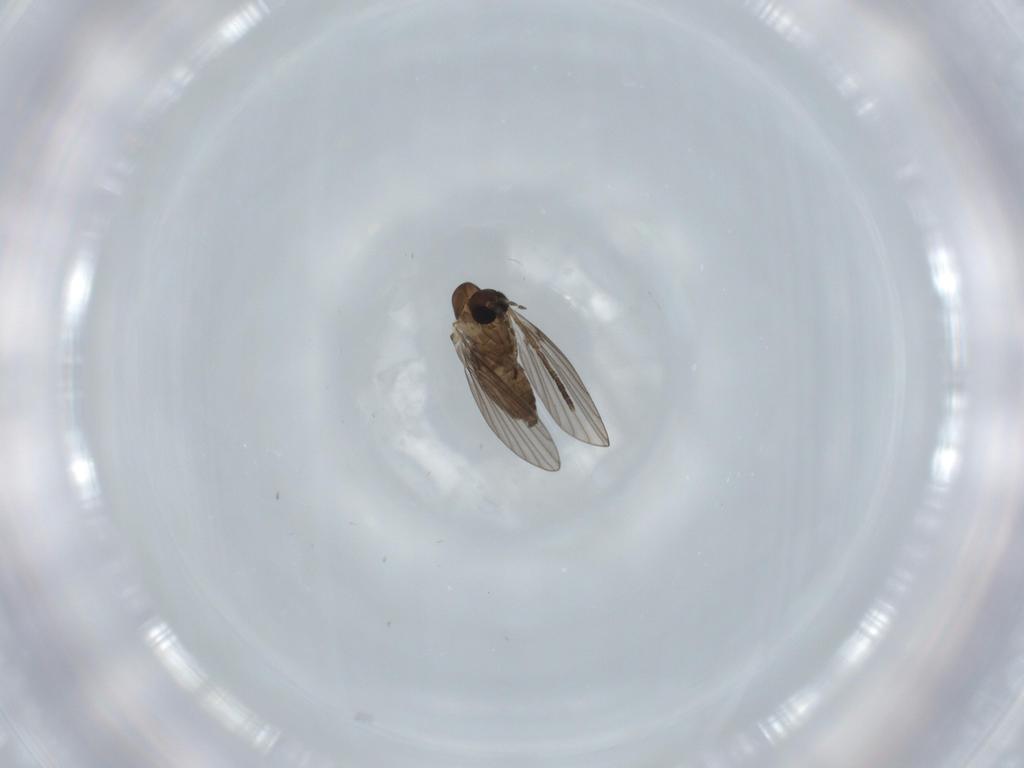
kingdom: Animalia
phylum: Arthropoda
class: Insecta
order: Diptera
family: Psychodidae
